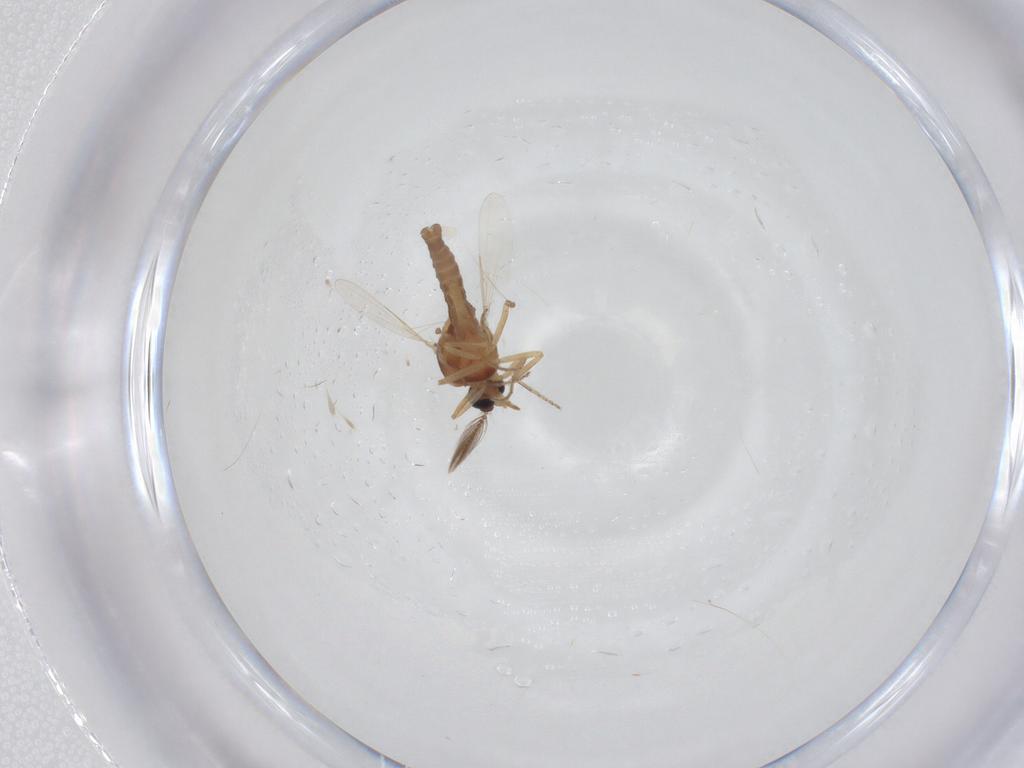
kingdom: Animalia
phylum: Arthropoda
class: Insecta
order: Diptera
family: Ceratopogonidae
